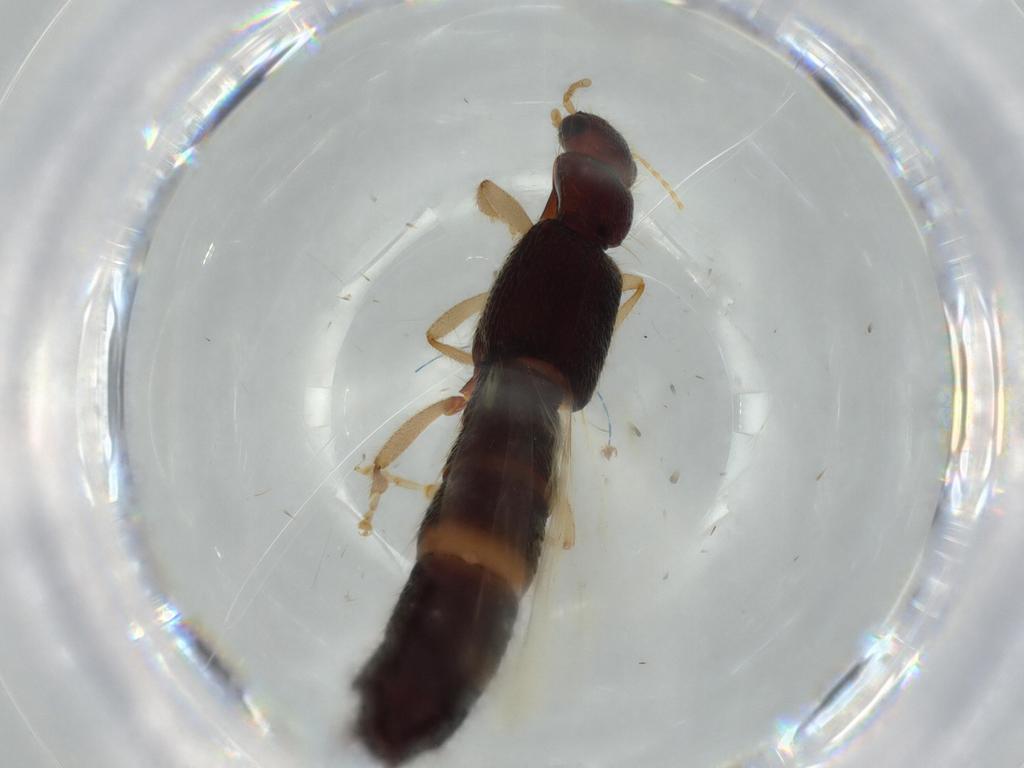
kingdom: Animalia
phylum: Arthropoda
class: Insecta
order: Coleoptera
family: Staphylinidae
